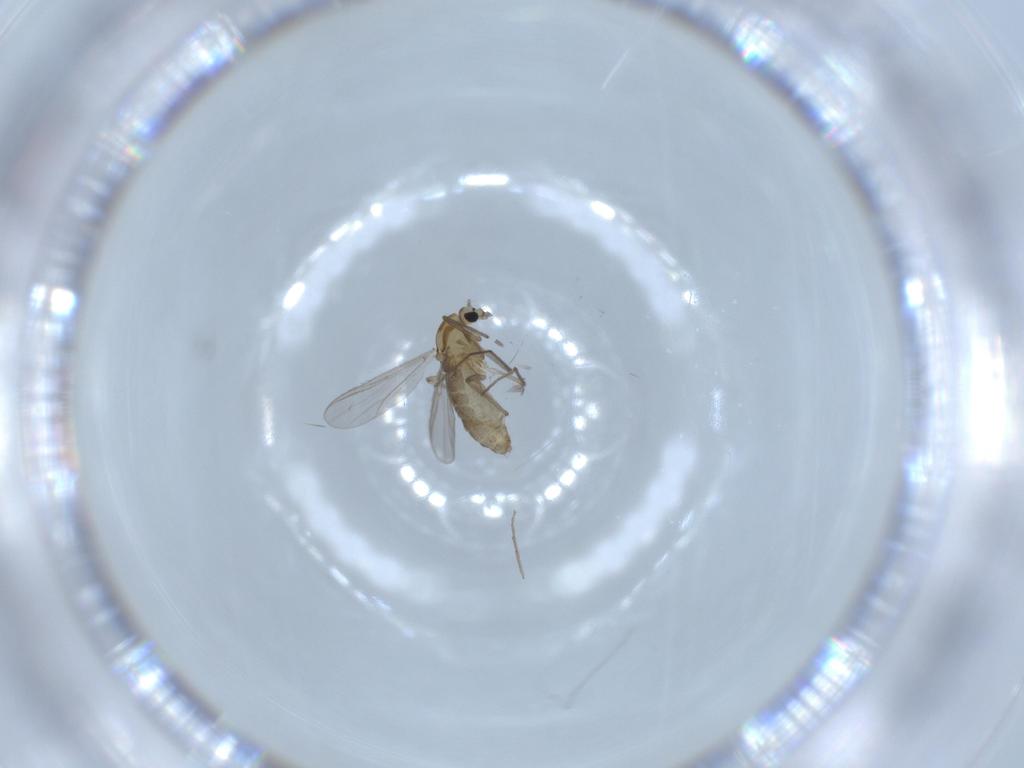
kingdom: Animalia
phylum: Arthropoda
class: Insecta
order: Diptera
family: Chironomidae
